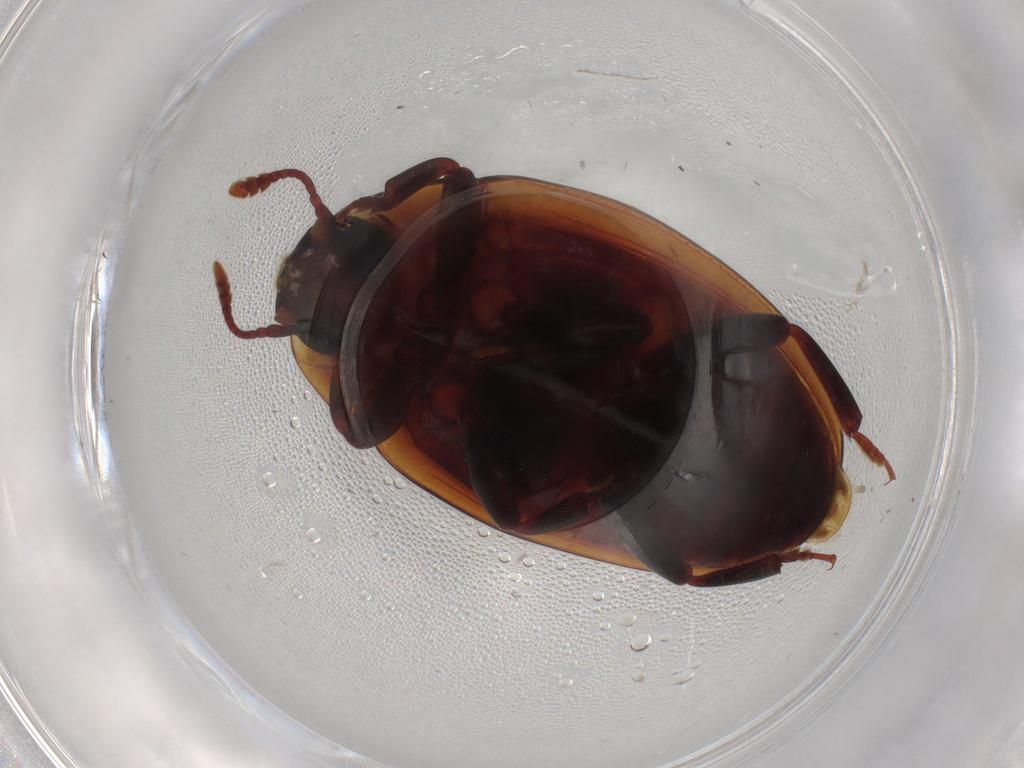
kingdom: Animalia
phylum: Arthropoda
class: Insecta
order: Coleoptera
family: Zopheridae
